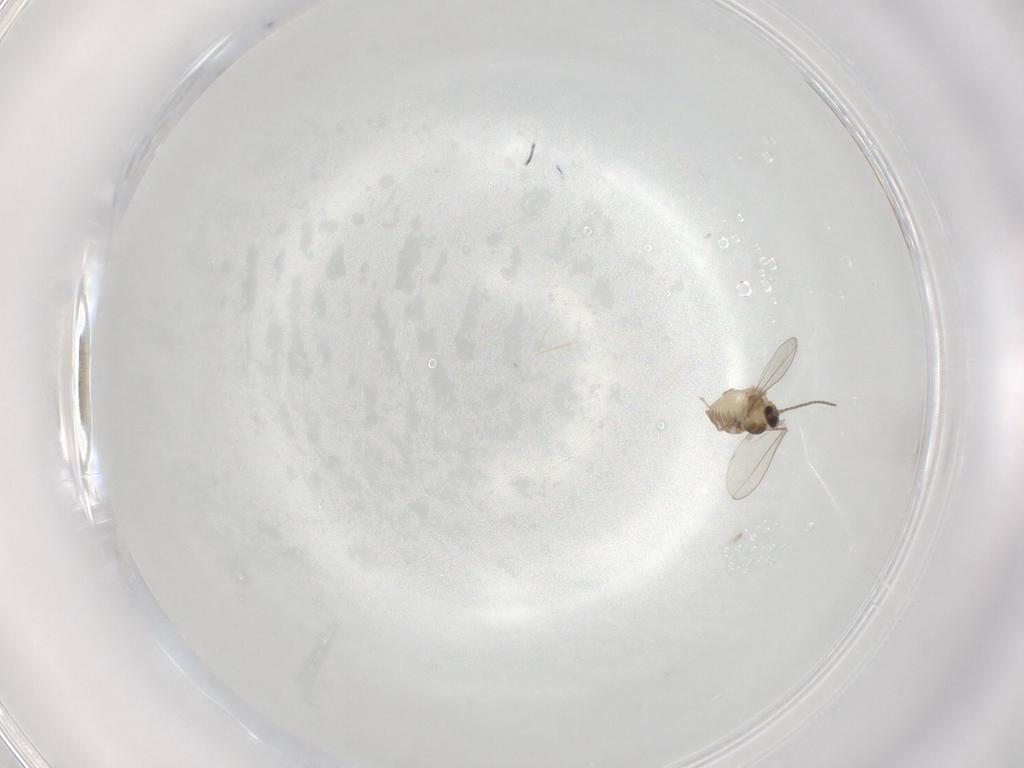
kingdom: Animalia
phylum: Arthropoda
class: Insecta
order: Diptera
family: Cecidomyiidae
